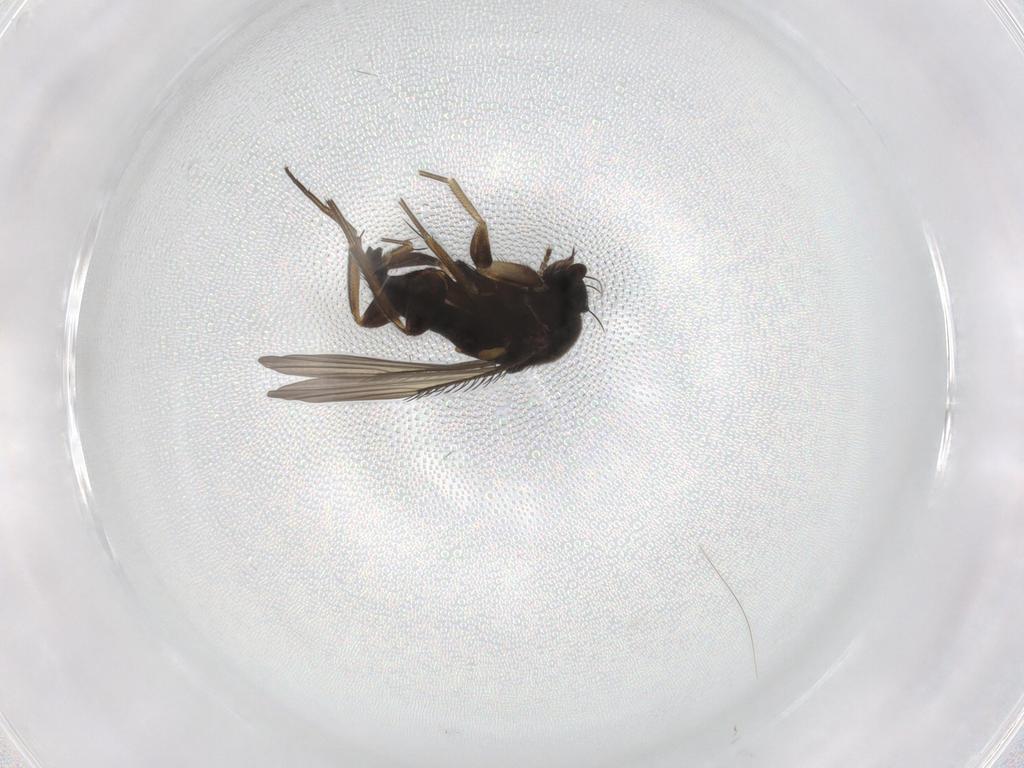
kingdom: Animalia
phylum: Arthropoda
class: Insecta
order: Diptera
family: Phoridae
